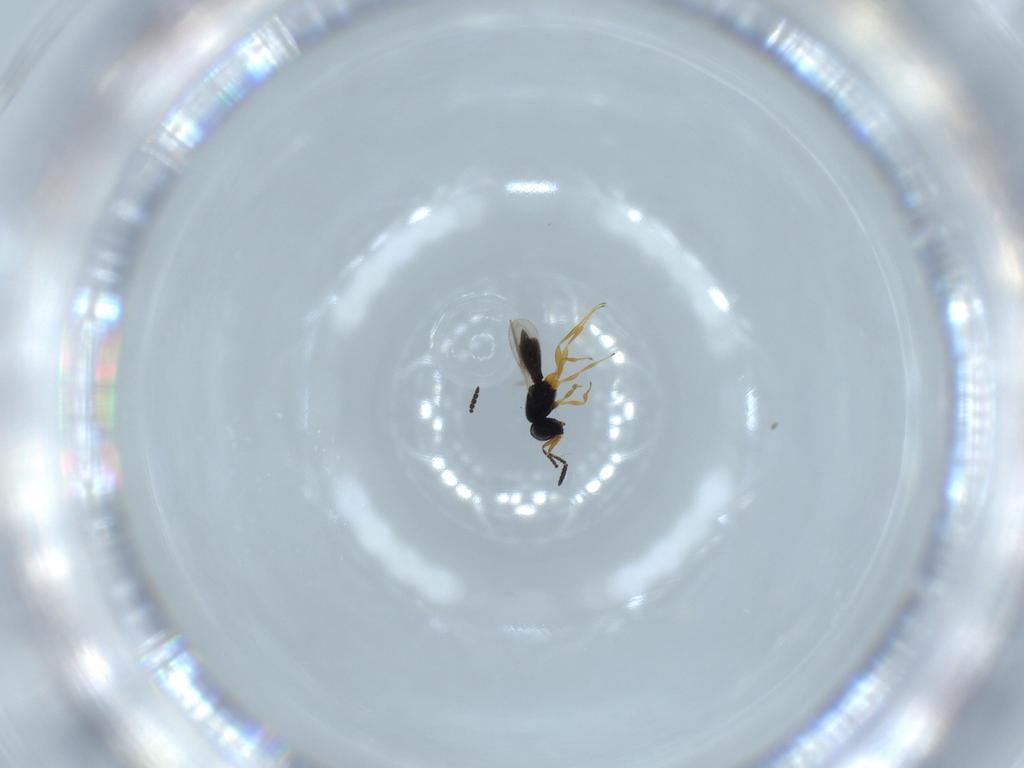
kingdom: Animalia
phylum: Arthropoda
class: Insecta
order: Hymenoptera
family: Scelionidae
